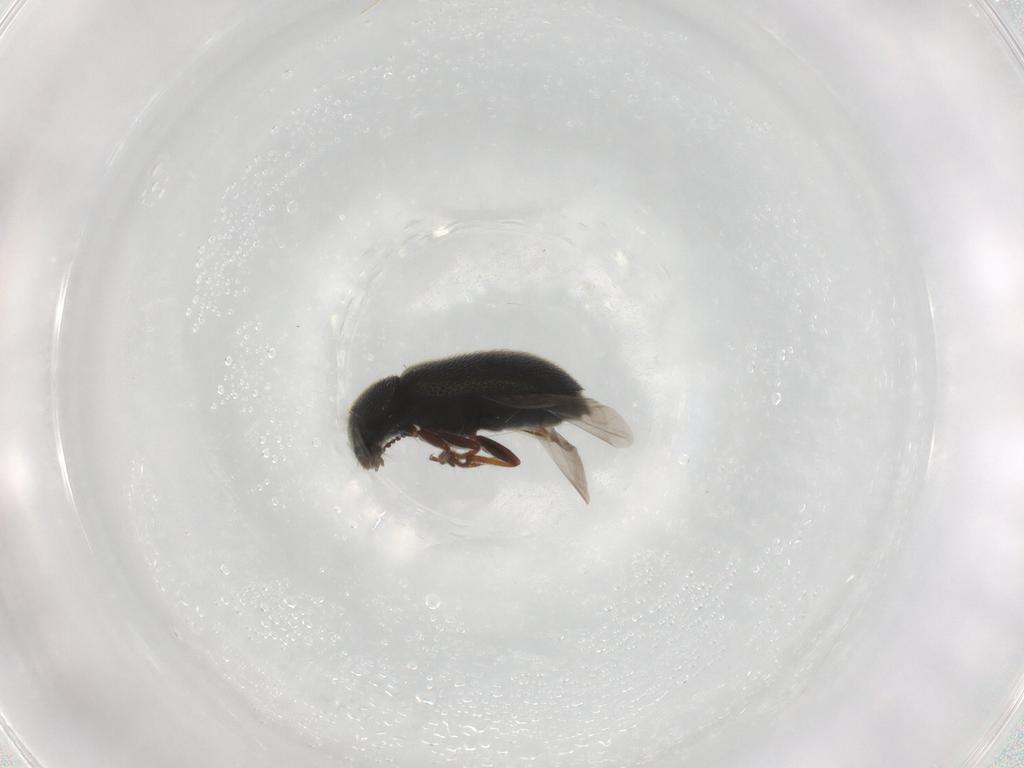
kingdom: Animalia
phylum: Arthropoda
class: Insecta
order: Coleoptera
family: Melyridae
